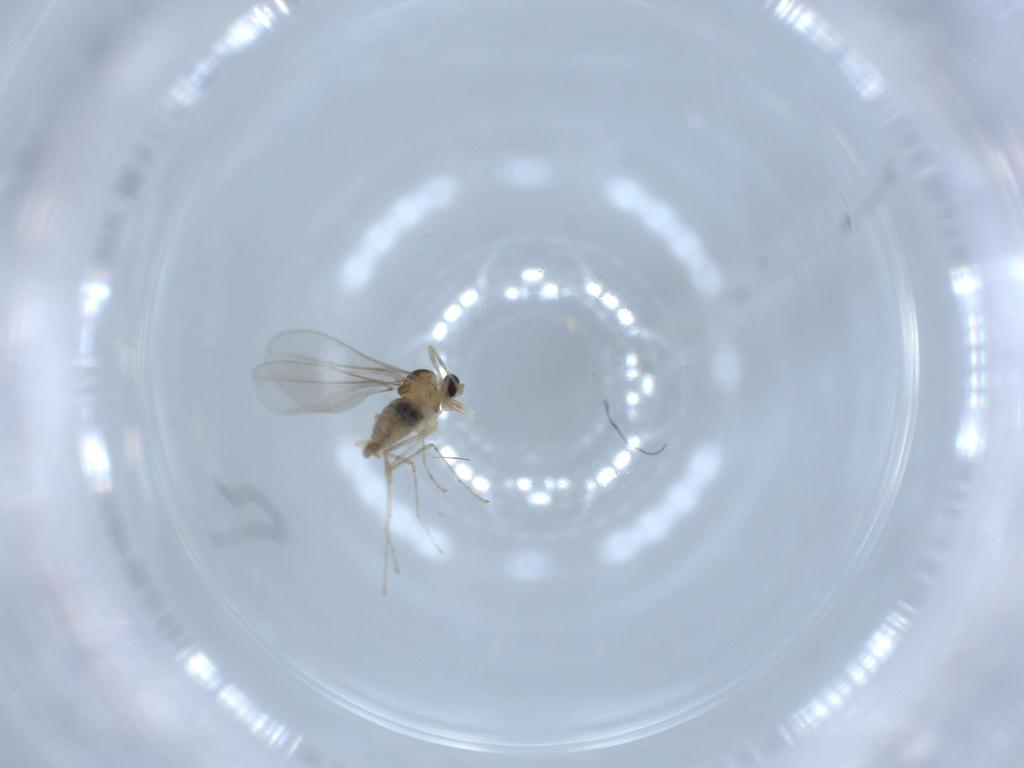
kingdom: Animalia
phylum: Arthropoda
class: Insecta
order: Diptera
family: Cecidomyiidae
